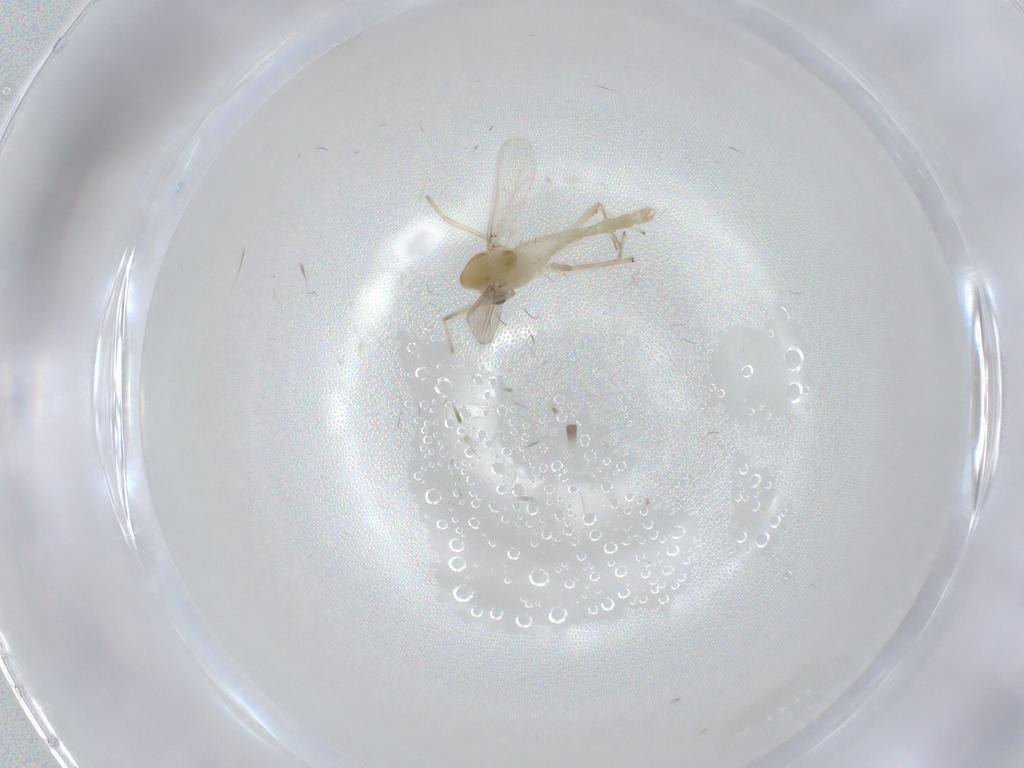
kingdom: Animalia
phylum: Arthropoda
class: Insecta
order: Diptera
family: Chironomidae
